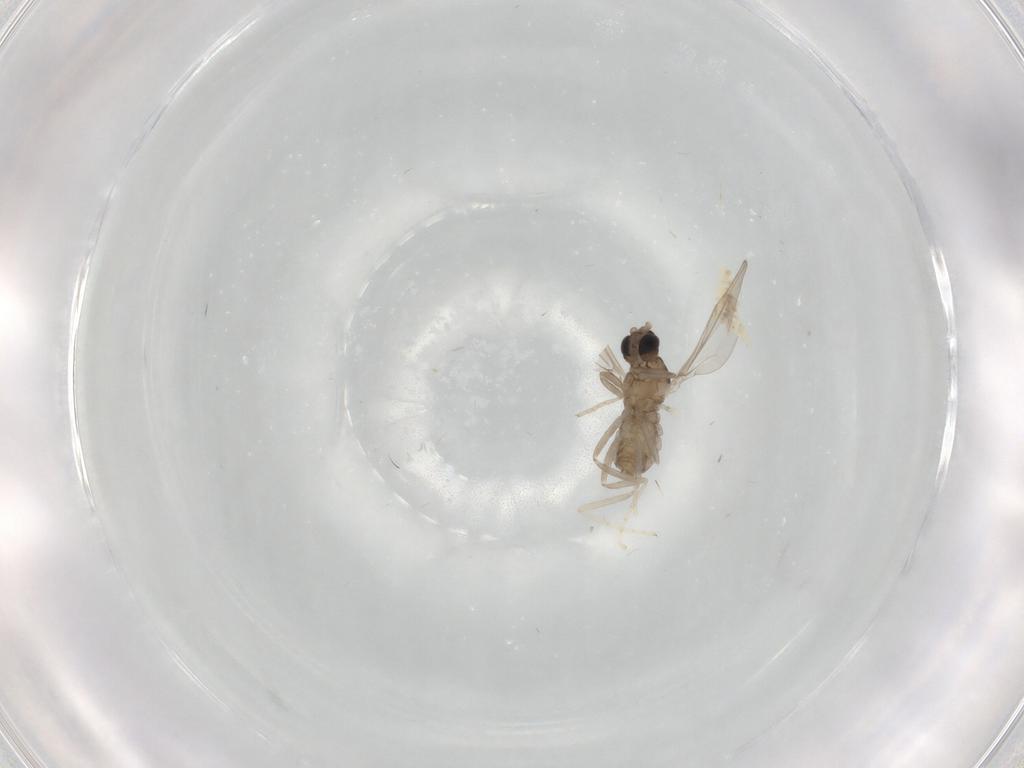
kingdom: Animalia
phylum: Arthropoda
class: Insecta
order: Diptera
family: Cecidomyiidae
